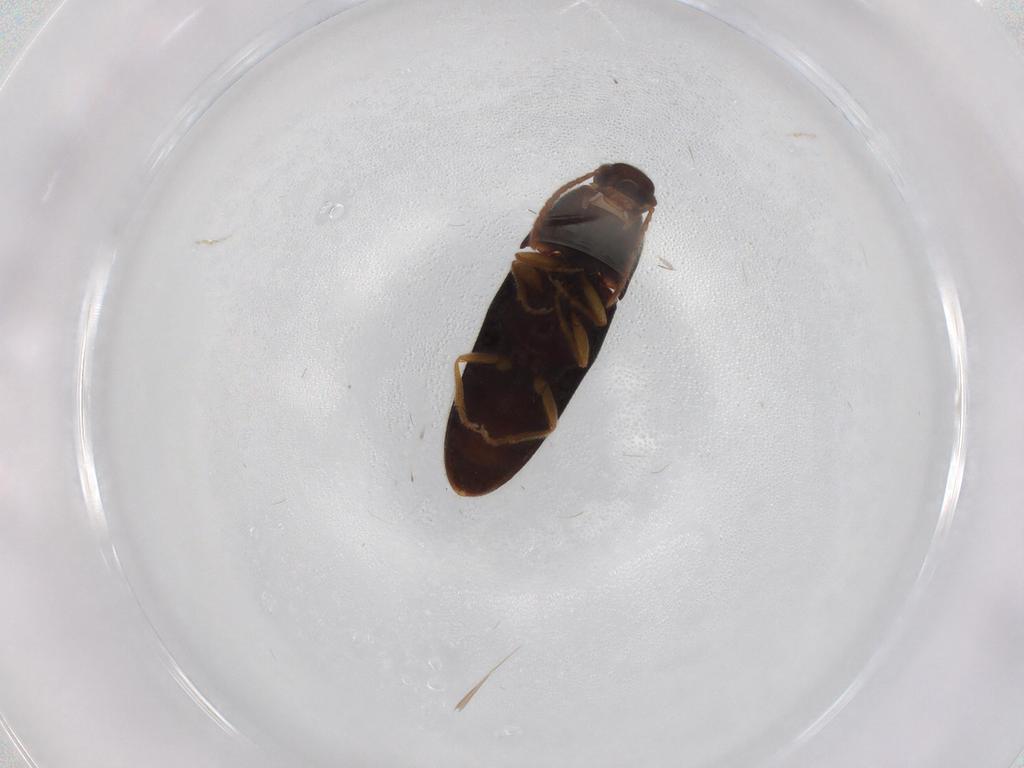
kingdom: Animalia
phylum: Arthropoda
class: Insecta
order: Coleoptera
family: Elateridae
